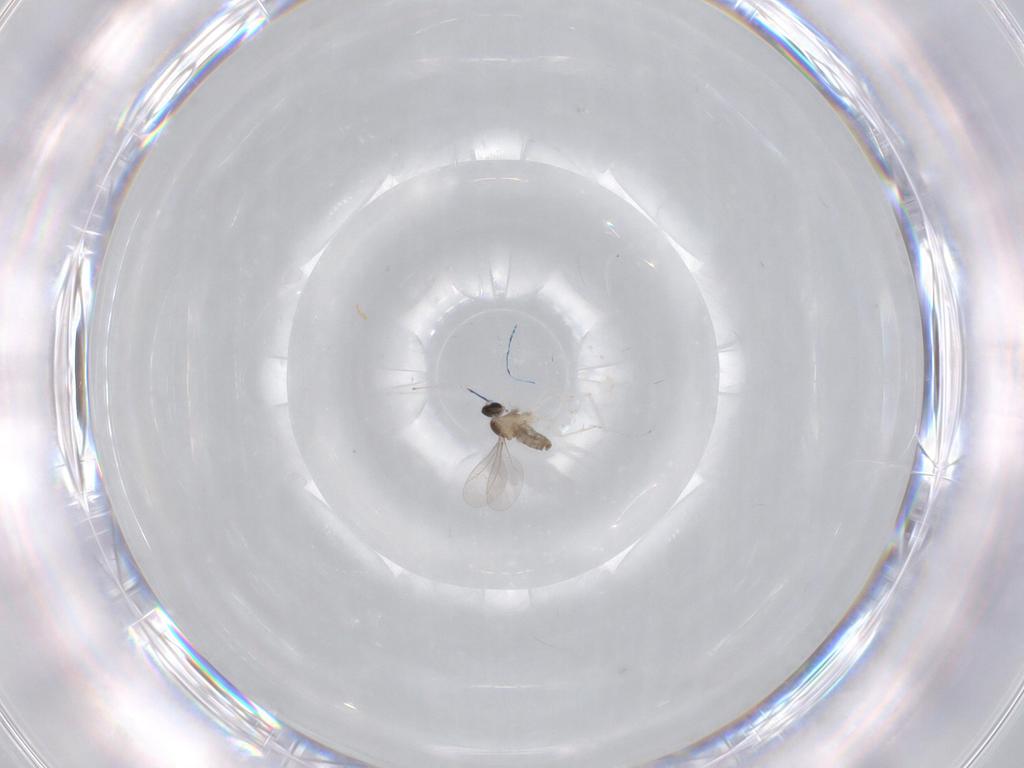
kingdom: Animalia
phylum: Arthropoda
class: Insecta
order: Diptera
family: Cecidomyiidae
